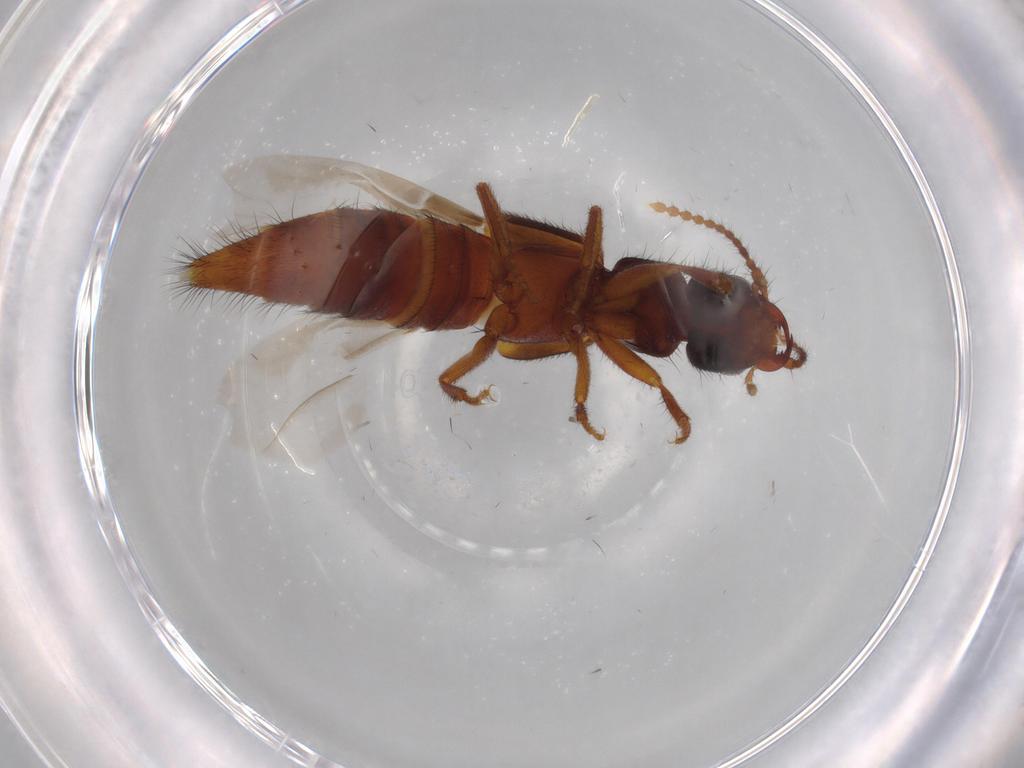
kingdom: Animalia
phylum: Arthropoda
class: Insecta
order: Coleoptera
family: Staphylinidae
